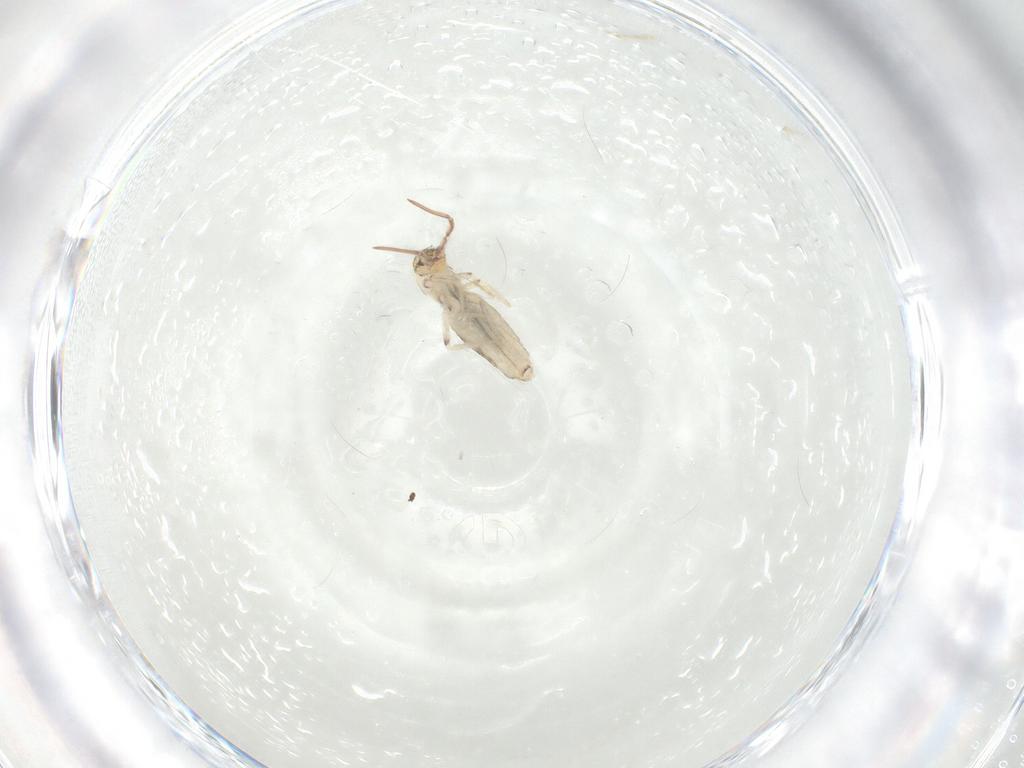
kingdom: Animalia
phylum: Arthropoda
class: Collembola
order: Entomobryomorpha
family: Entomobryidae
